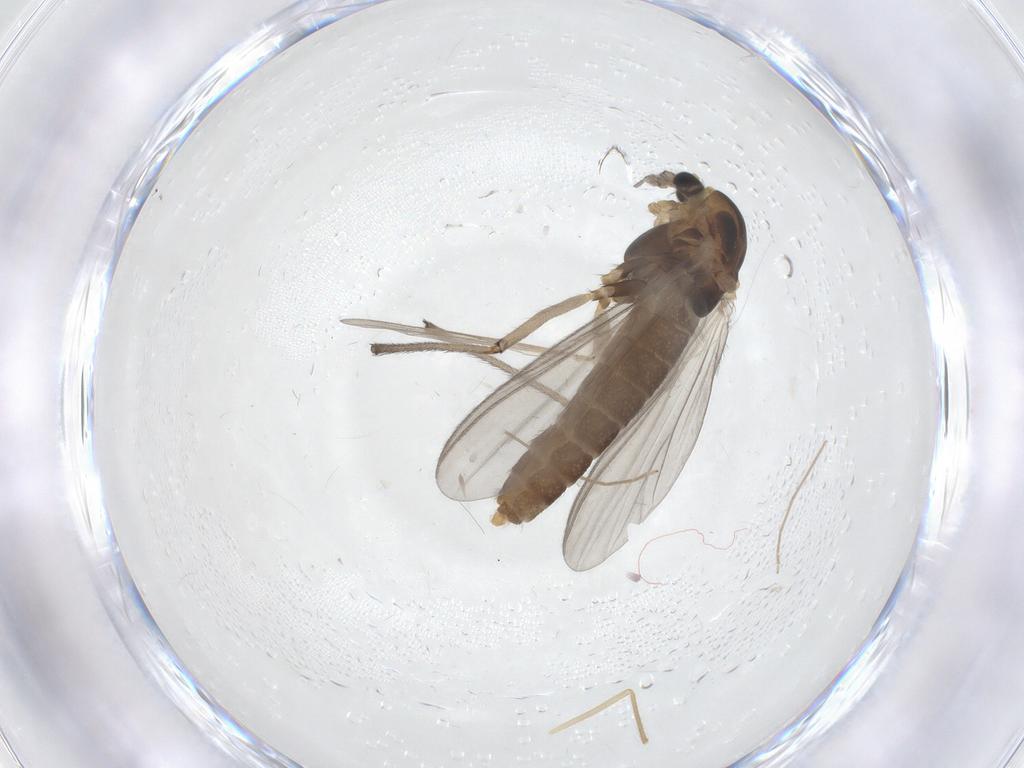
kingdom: Animalia
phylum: Arthropoda
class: Insecta
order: Diptera
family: Chironomidae
